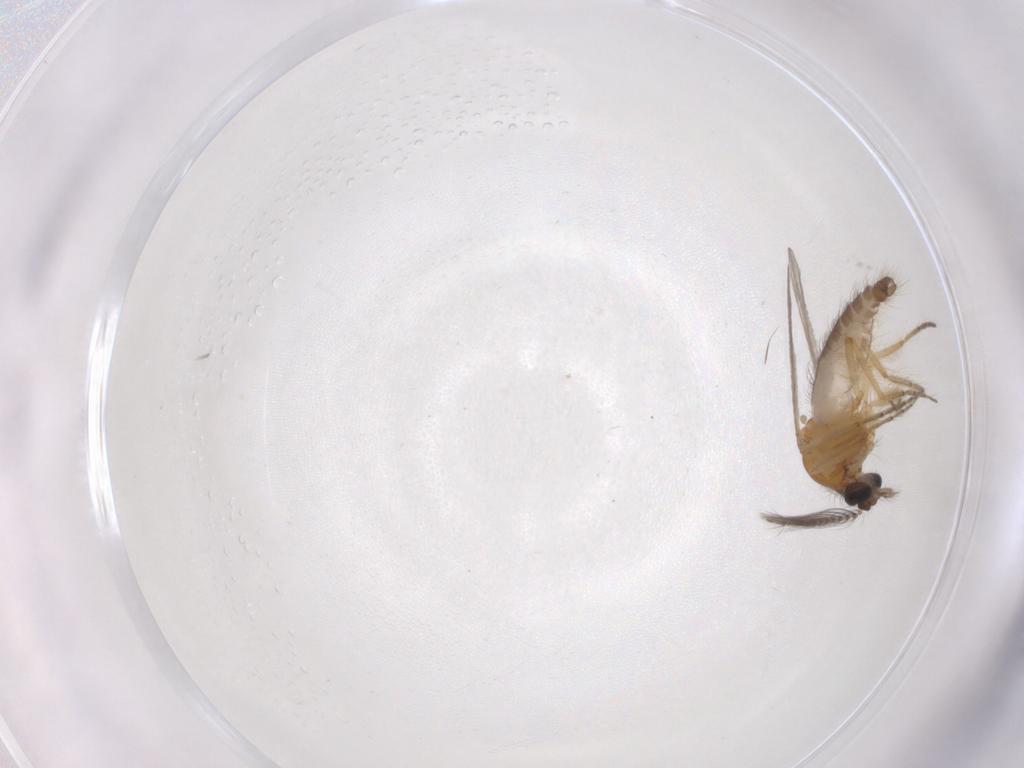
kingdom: Animalia
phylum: Arthropoda
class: Insecta
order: Diptera
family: Ceratopogonidae
